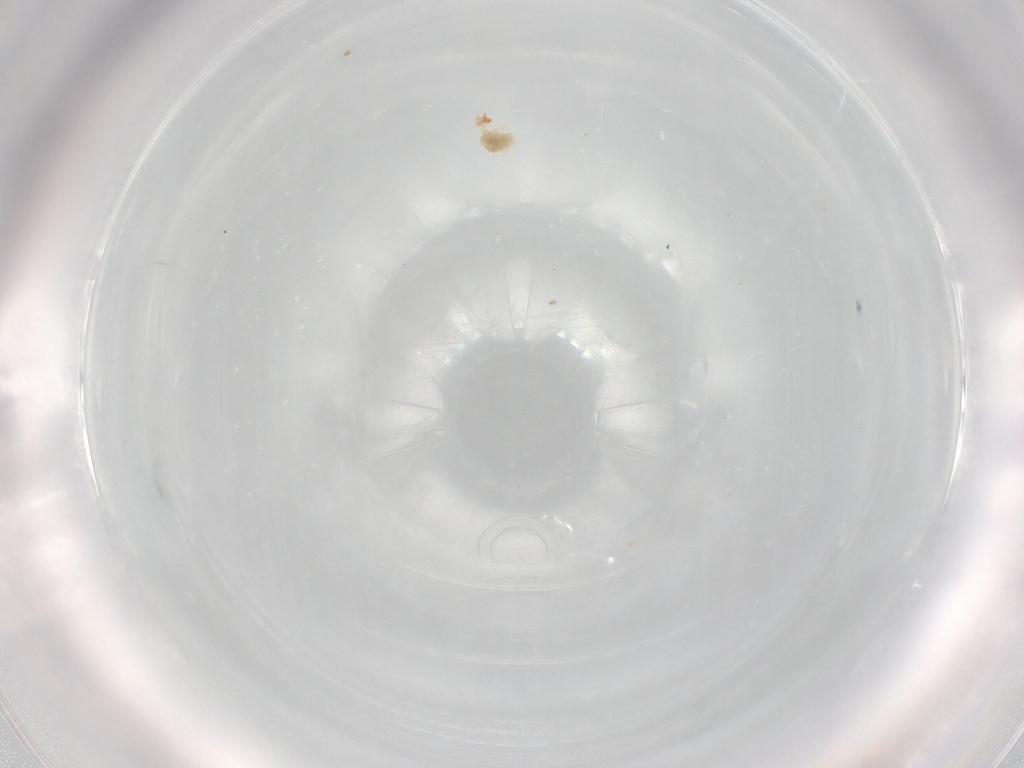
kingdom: Animalia
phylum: Arthropoda
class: Arachnida
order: Trombidiformes
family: Eupodidae
